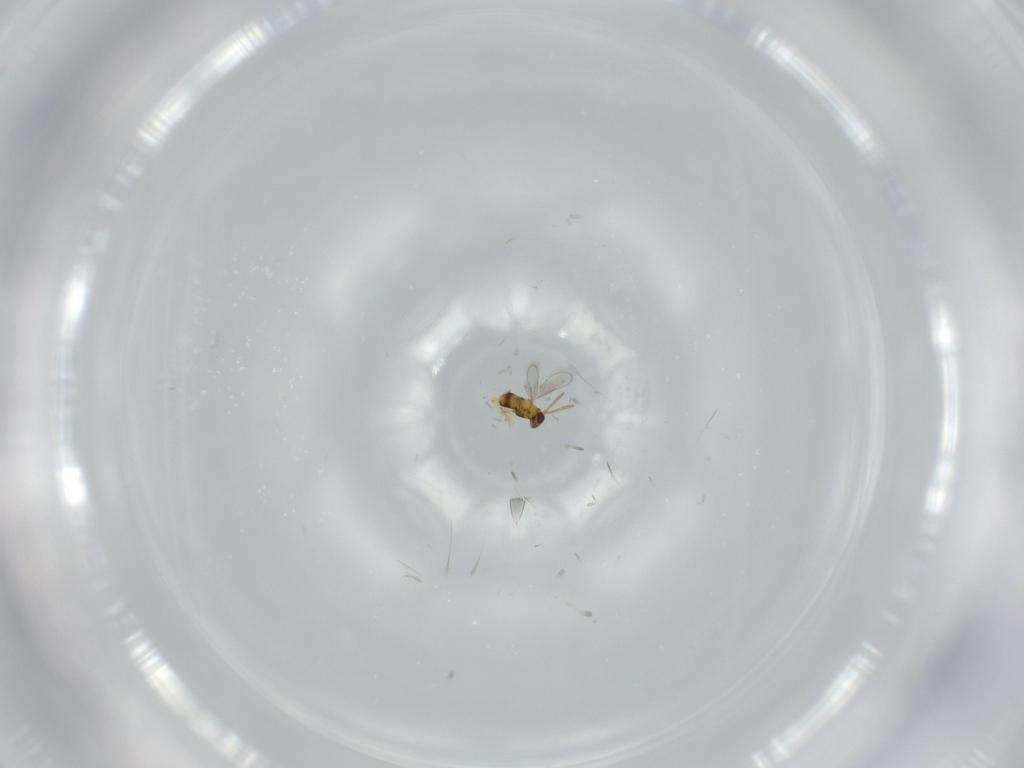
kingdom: Animalia
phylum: Arthropoda
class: Insecta
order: Hymenoptera
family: Aphelinidae
